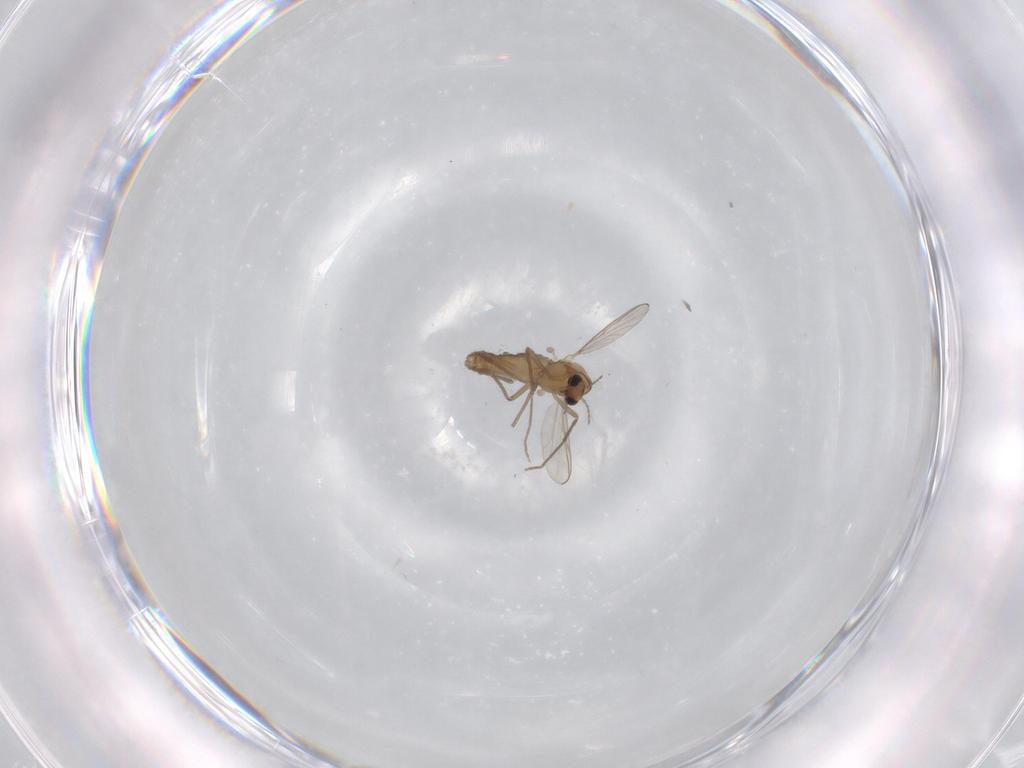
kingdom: Animalia
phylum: Arthropoda
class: Insecta
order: Diptera
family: Chironomidae
